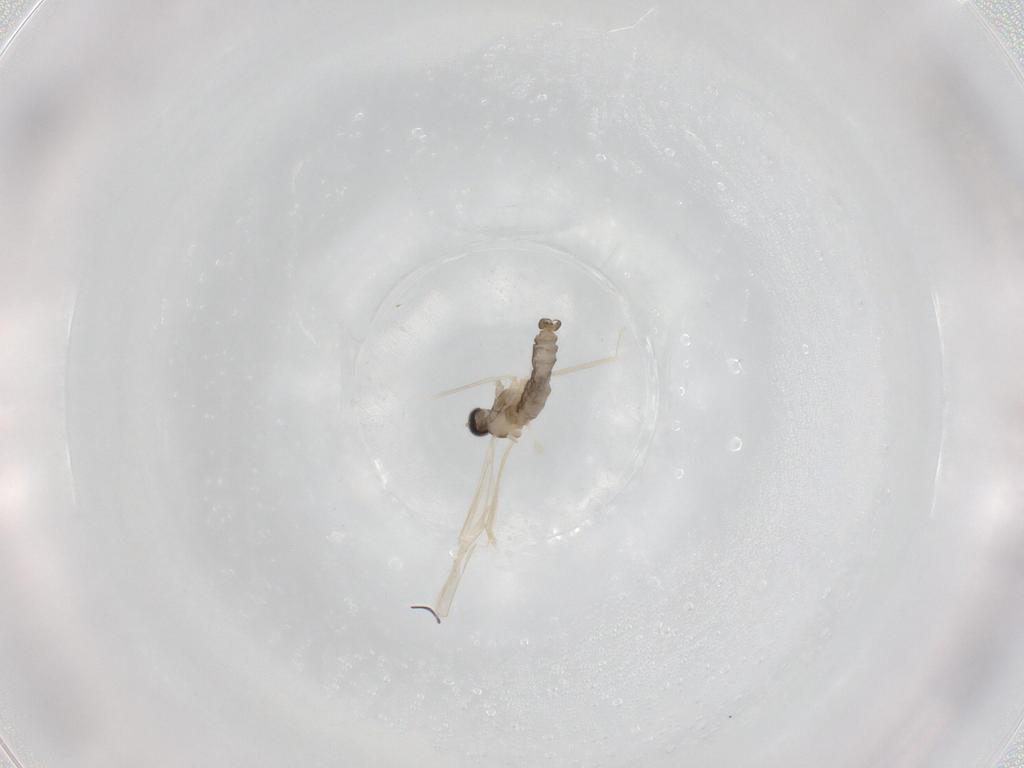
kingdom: Animalia
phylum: Arthropoda
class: Insecta
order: Diptera
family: Cecidomyiidae
